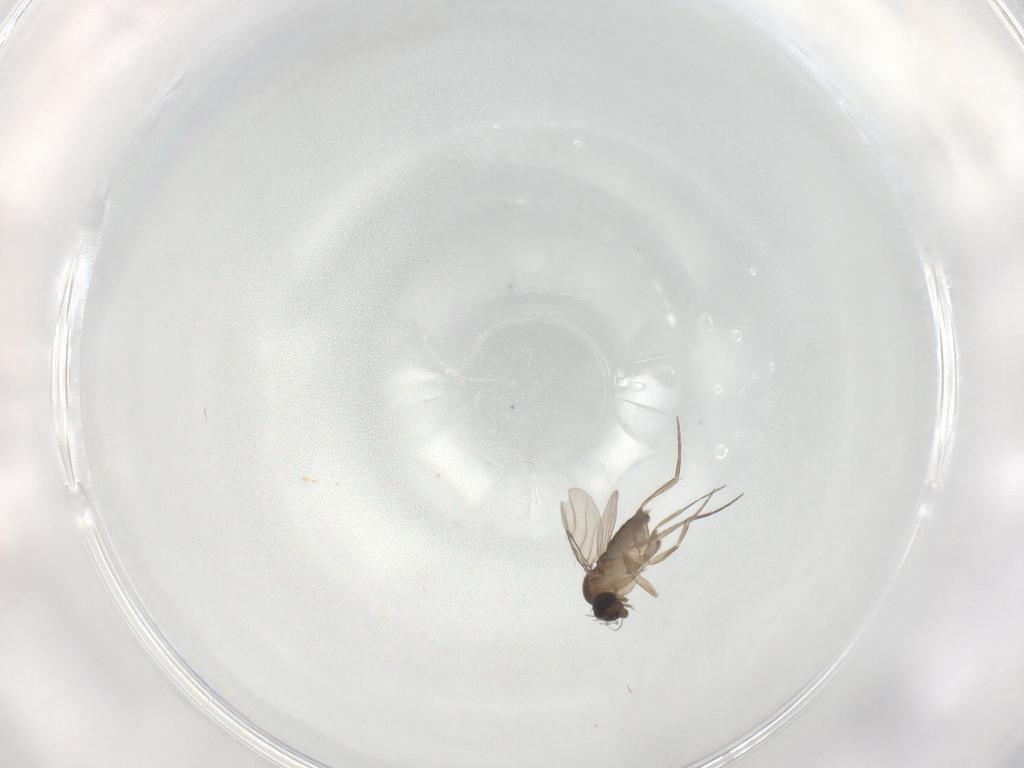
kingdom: Animalia
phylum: Arthropoda
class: Insecta
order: Diptera
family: Phoridae
